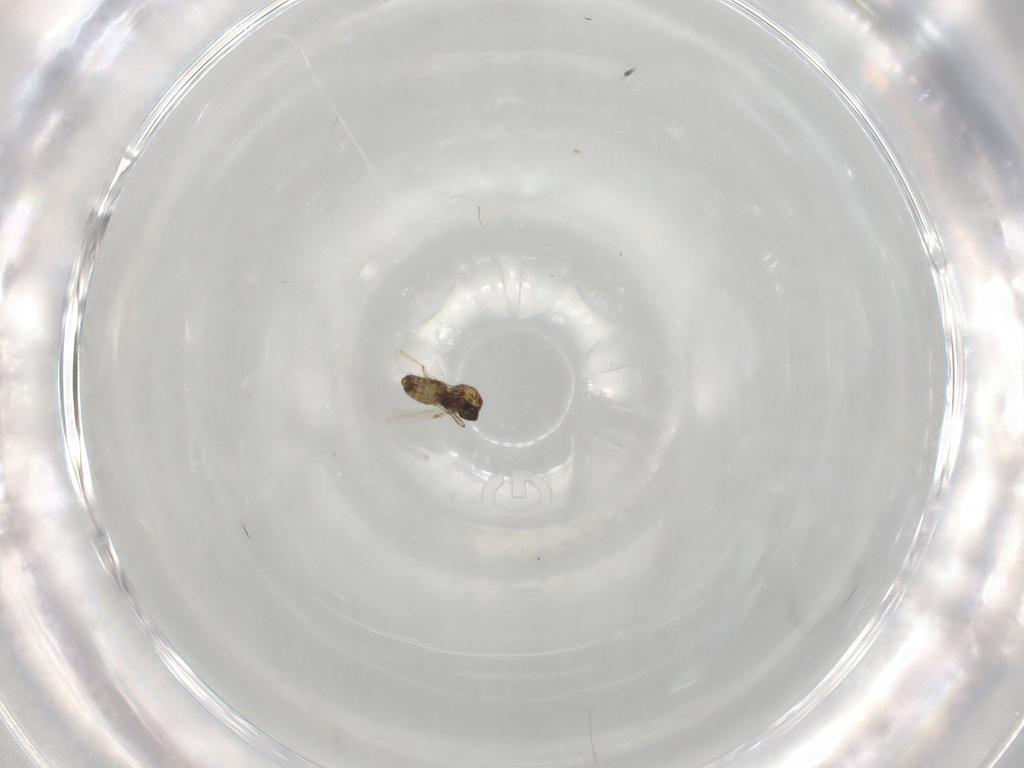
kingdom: Animalia
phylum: Arthropoda
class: Insecta
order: Diptera
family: Ceratopogonidae
